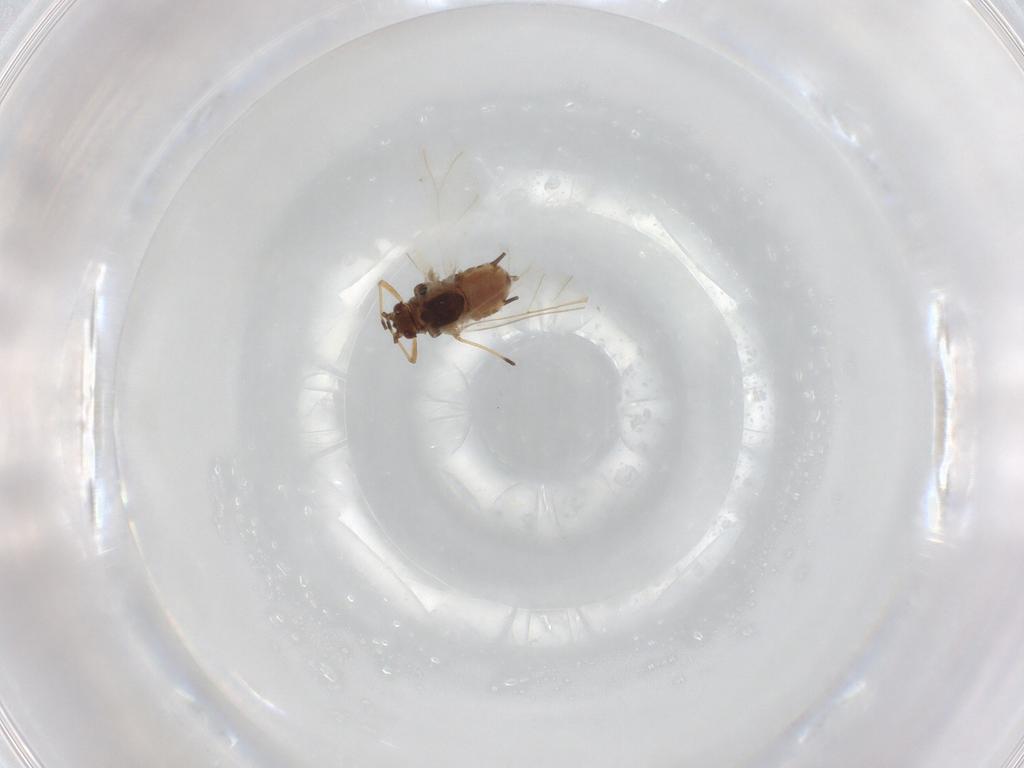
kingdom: Animalia
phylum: Arthropoda
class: Insecta
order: Hemiptera
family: Aphididae
